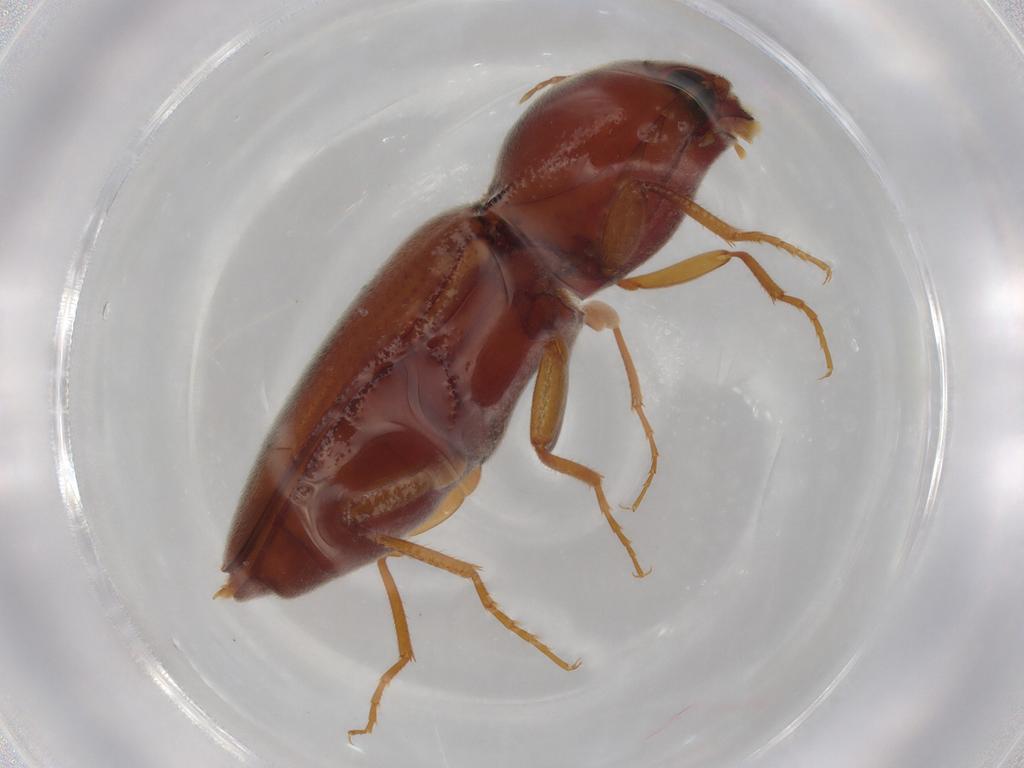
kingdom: Animalia
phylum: Arthropoda
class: Insecta
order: Coleoptera
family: Elateridae
